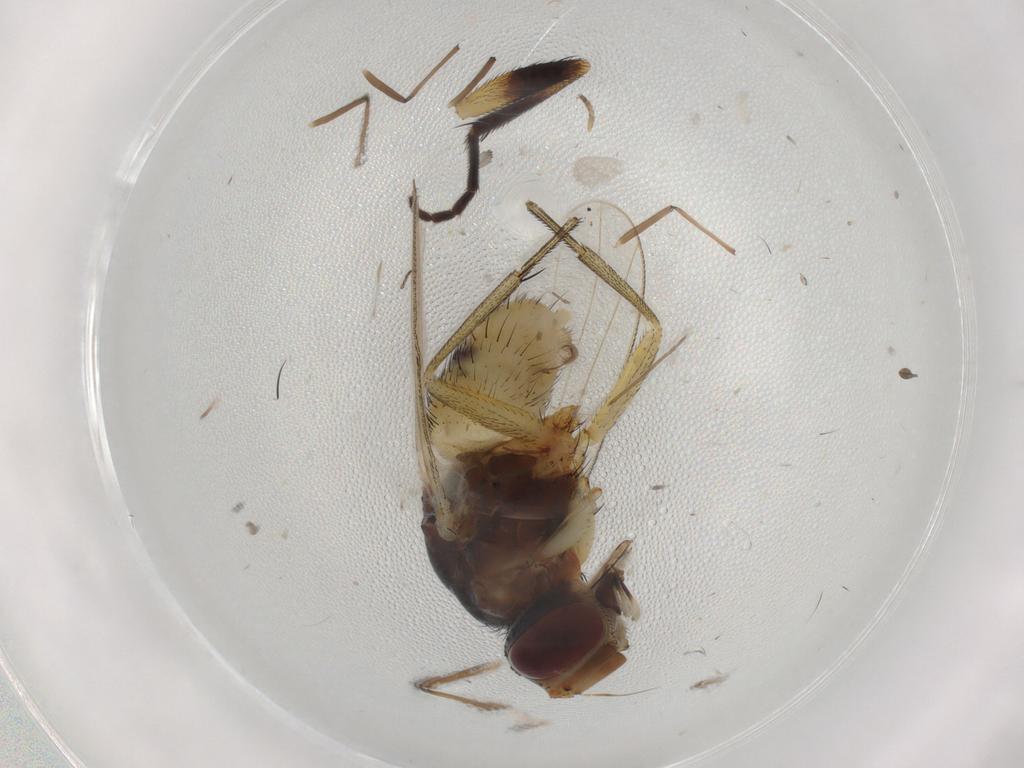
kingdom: Animalia
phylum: Arthropoda
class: Insecta
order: Diptera
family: Muscidae
